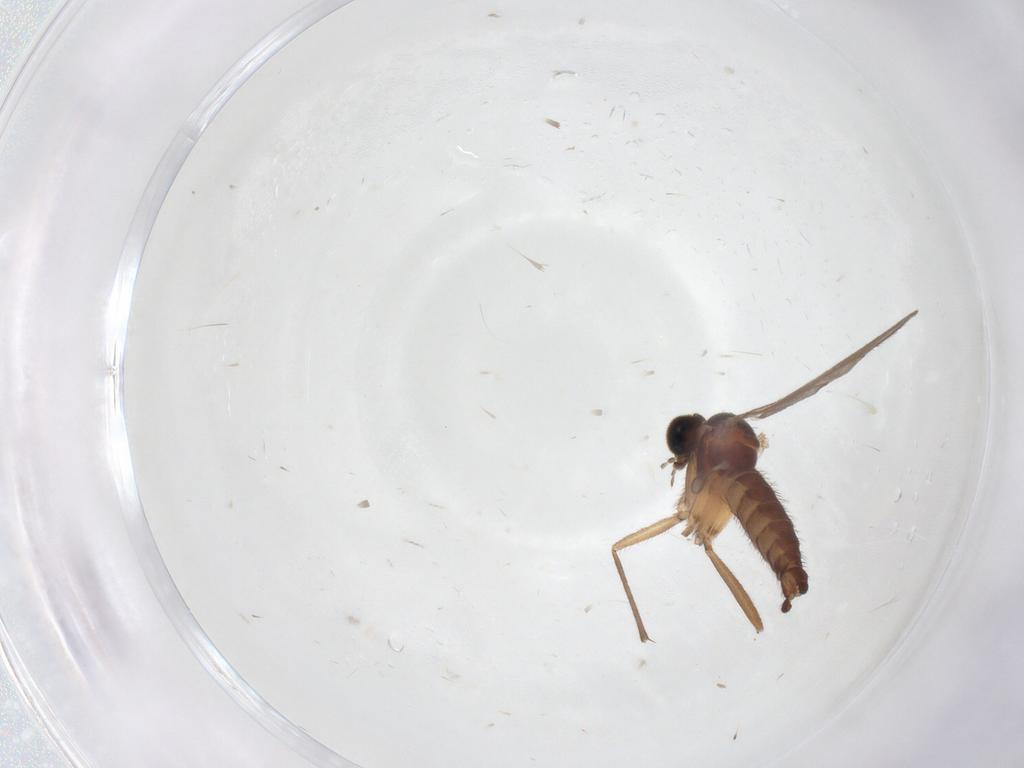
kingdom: Animalia
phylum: Arthropoda
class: Insecta
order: Diptera
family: Sciaridae
